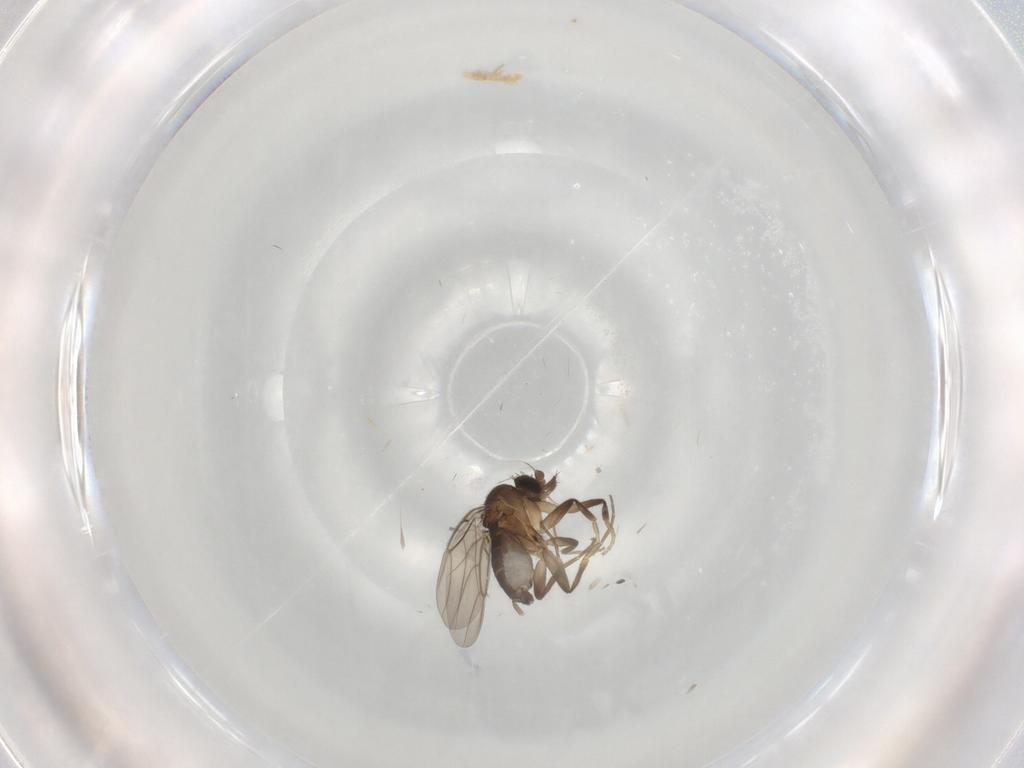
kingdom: Animalia
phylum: Arthropoda
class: Insecta
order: Diptera
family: Phoridae
